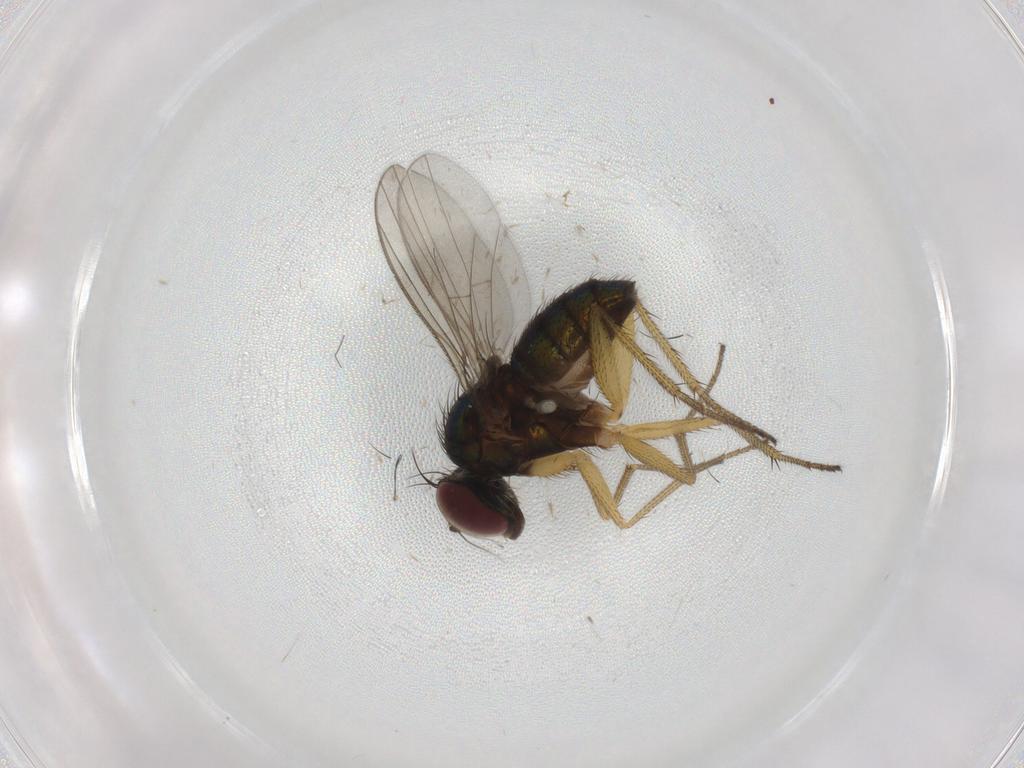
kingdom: Animalia
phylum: Arthropoda
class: Insecta
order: Diptera
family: Dolichopodidae
